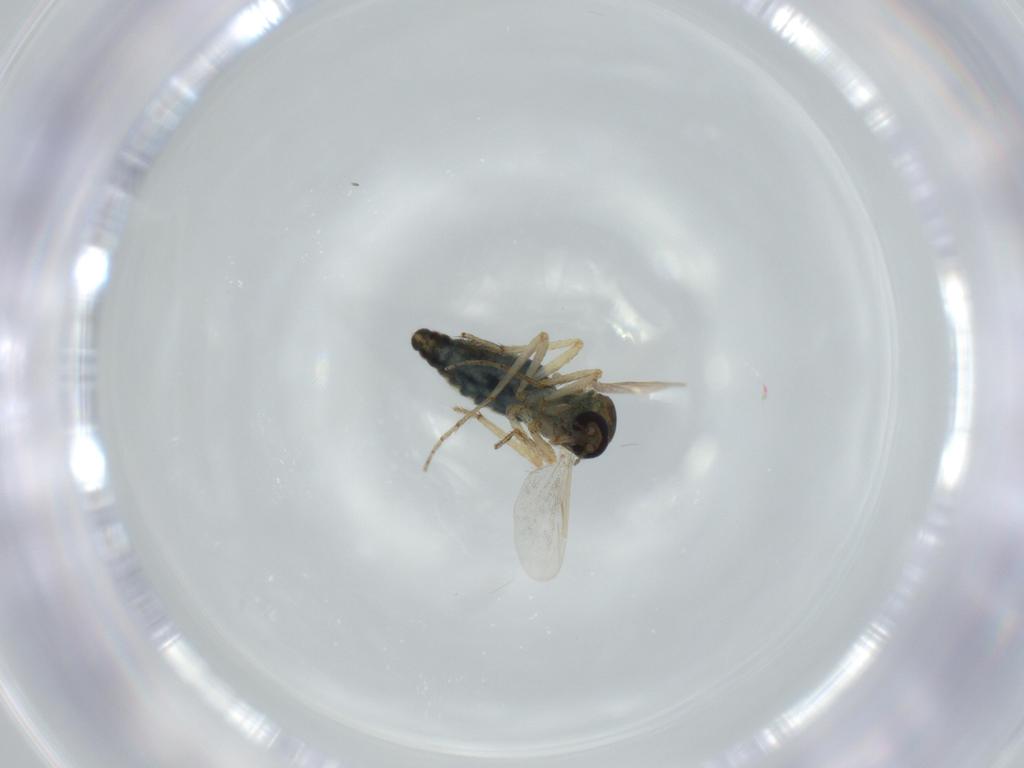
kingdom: Animalia
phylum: Arthropoda
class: Insecta
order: Diptera
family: Ceratopogonidae
